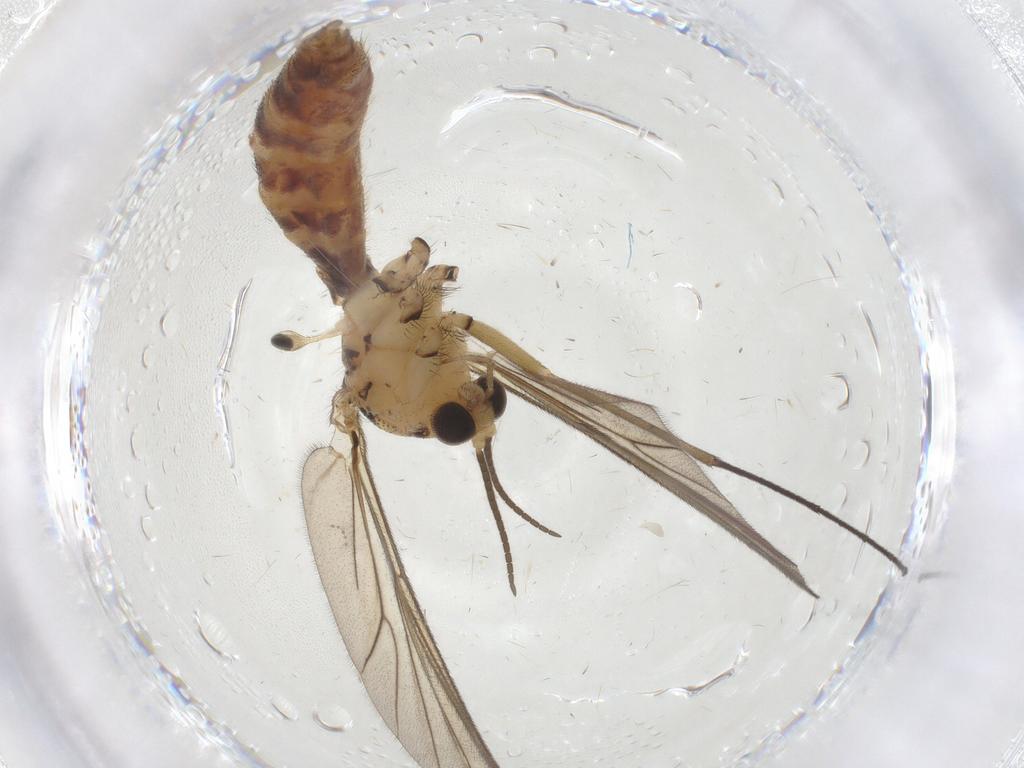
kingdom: Animalia
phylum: Arthropoda
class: Insecta
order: Diptera
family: Ceratopogonidae
